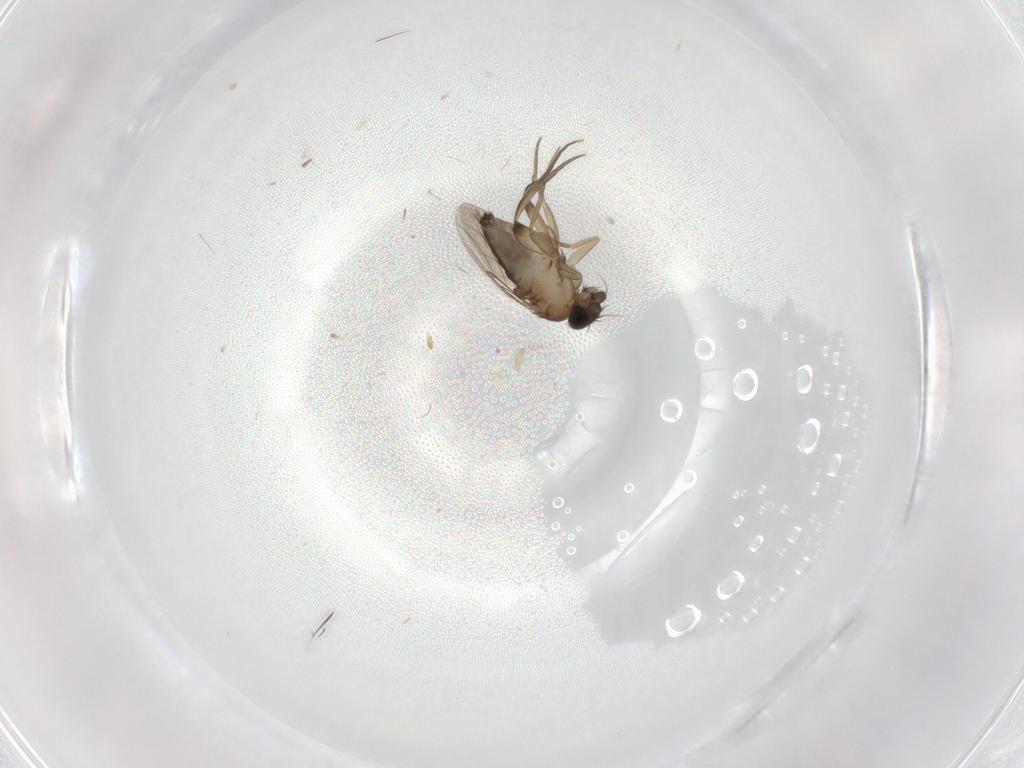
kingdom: Animalia
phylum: Arthropoda
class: Insecta
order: Diptera
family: Phoridae
